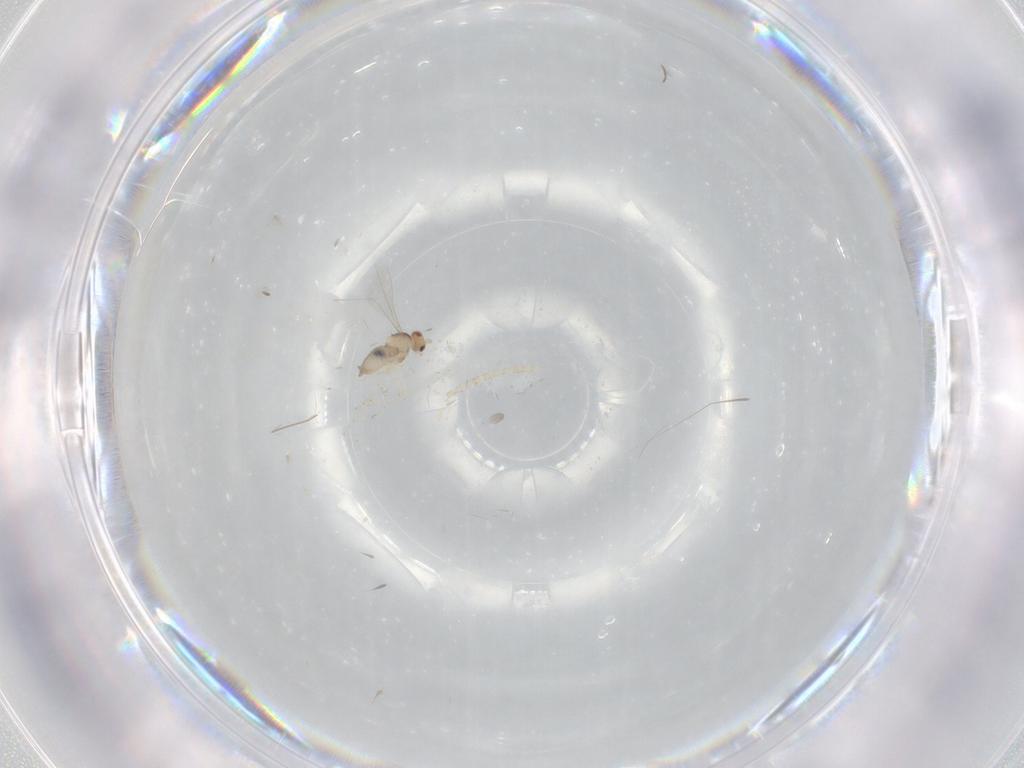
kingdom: Animalia
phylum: Arthropoda
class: Insecta
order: Diptera
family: Cecidomyiidae
